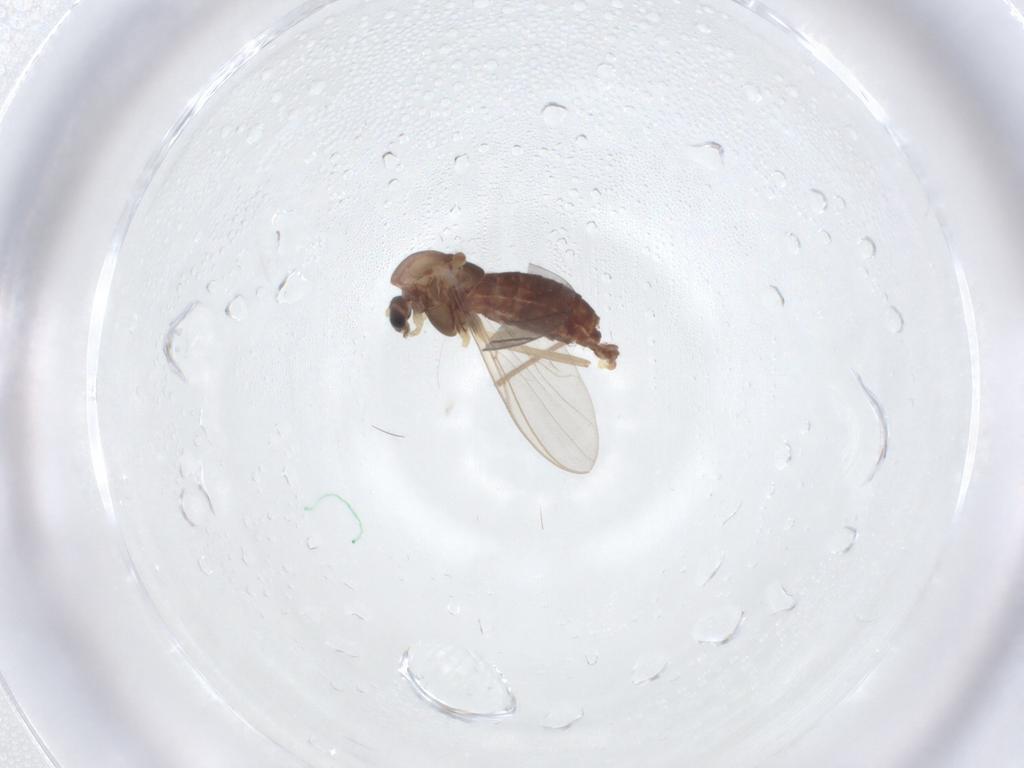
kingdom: Animalia
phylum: Arthropoda
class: Insecta
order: Diptera
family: Chironomidae
